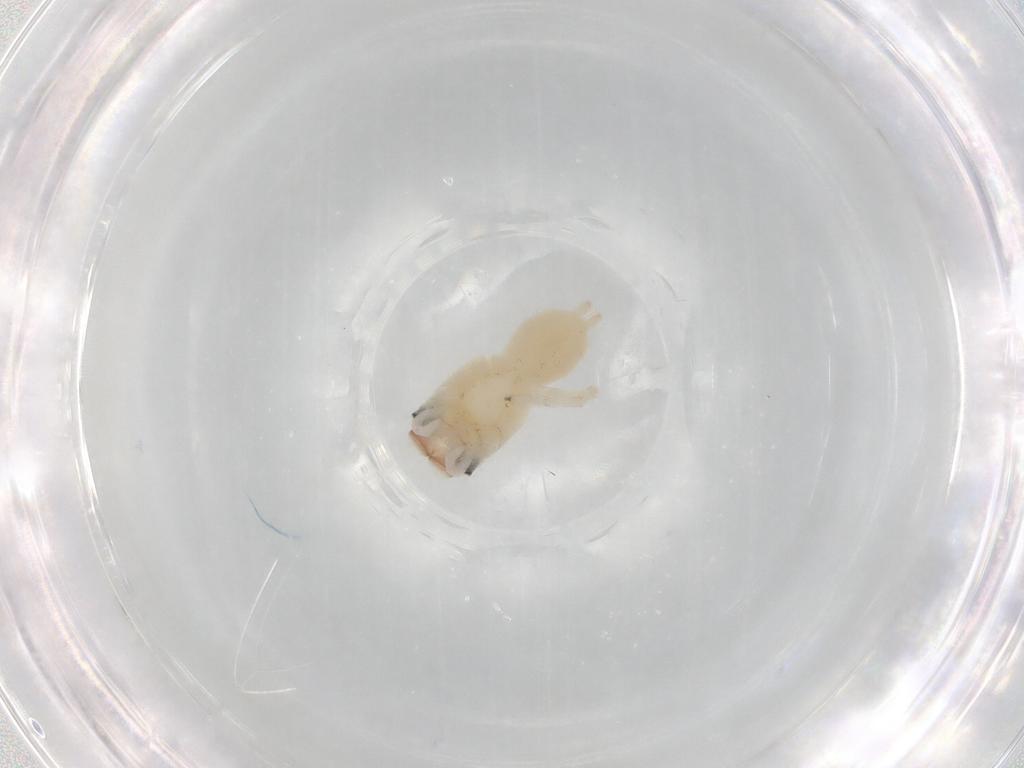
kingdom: Animalia
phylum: Arthropoda
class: Arachnida
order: Araneae
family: Salticidae
